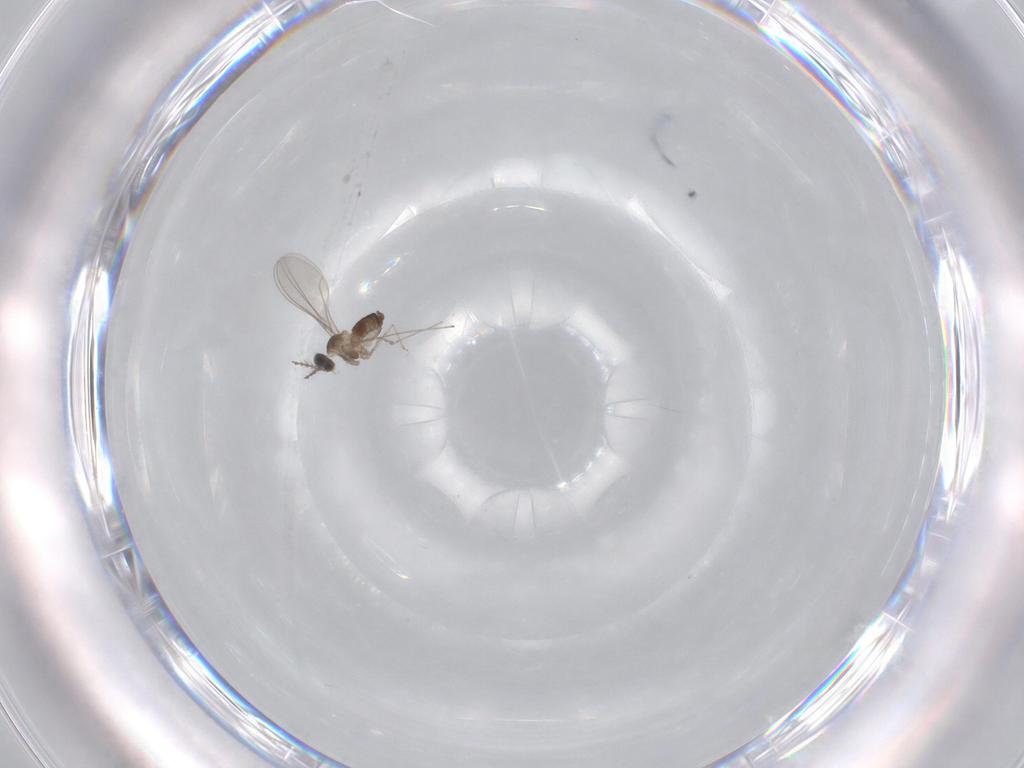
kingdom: Animalia
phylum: Arthropoda
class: Insecta
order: Diptera
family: Cecidomyiidae
